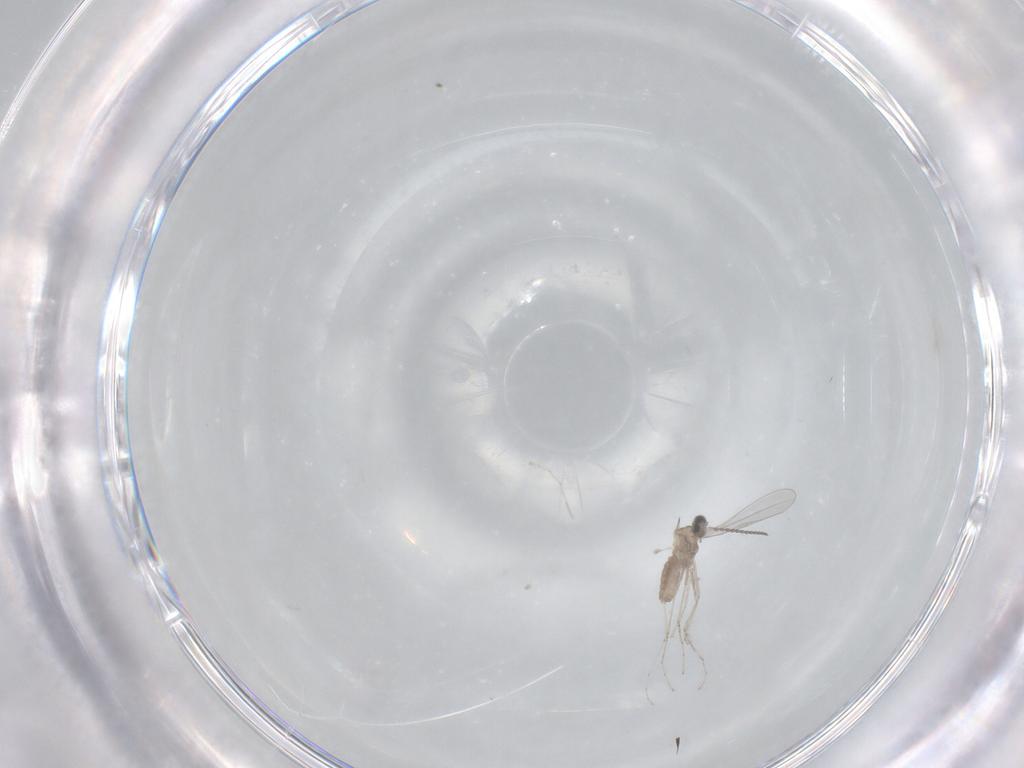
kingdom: Animalia
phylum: Arthropoda
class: Insecta
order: Diptera
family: Cecidomyiidae
